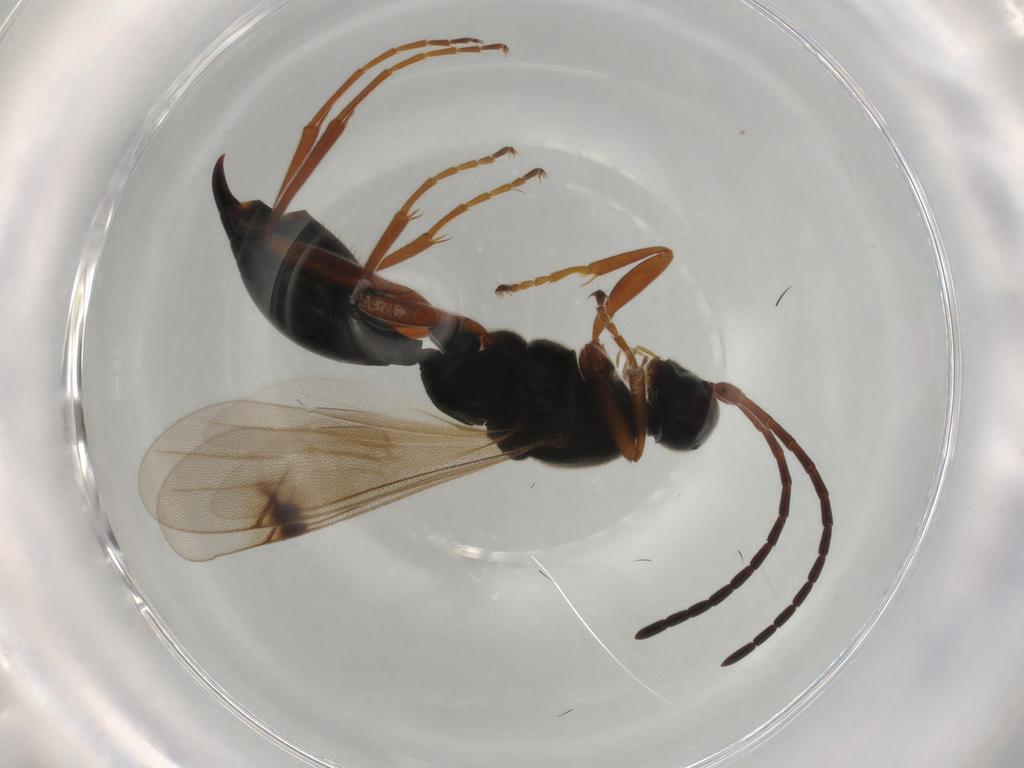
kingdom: Animalia
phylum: Arthropoda
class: Insecta
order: Hymenoptera
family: Proctotrupidae
